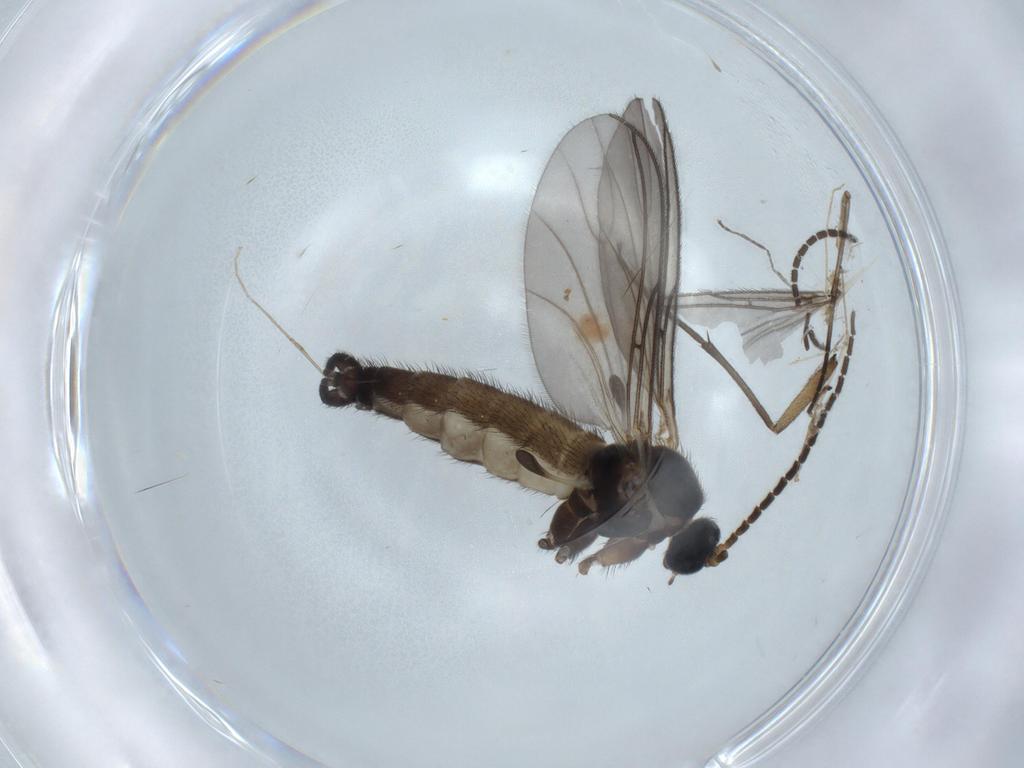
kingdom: Animalia
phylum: Arthropoda
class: Insecta
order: Diptera
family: Sciaridae
